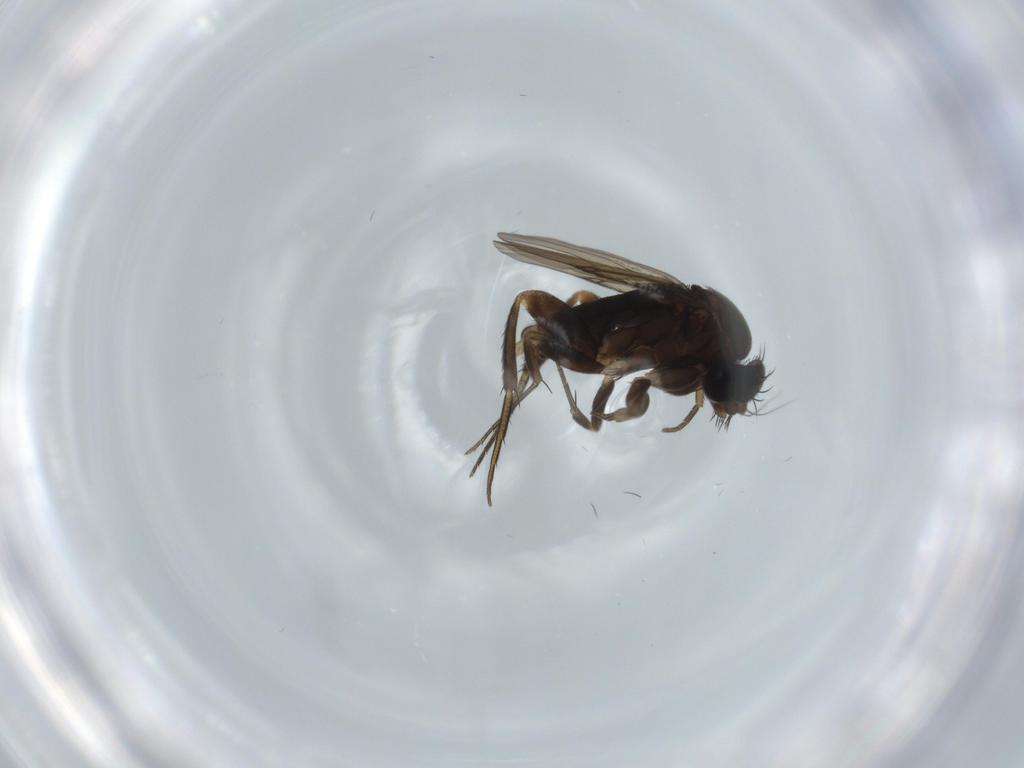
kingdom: Animalia
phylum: Arthropoda
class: Insecta
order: Diptera
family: Phoridae
